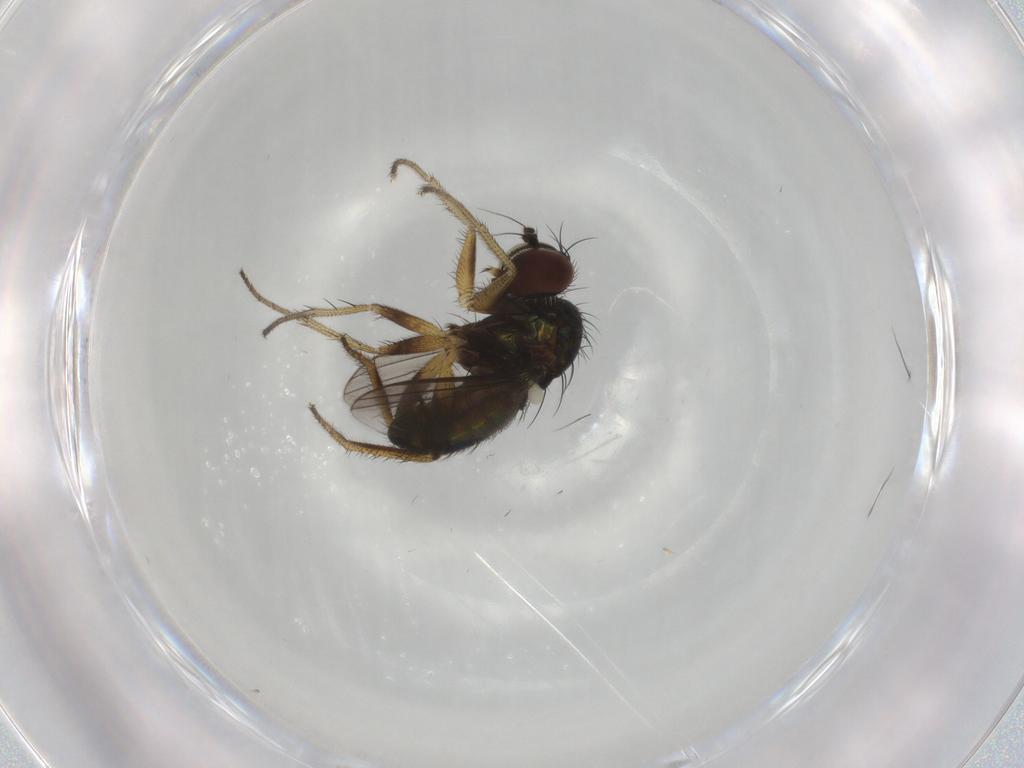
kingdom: Animalia
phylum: Arthropoda
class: Insecta
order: Diptera
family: Dolichopodidae
